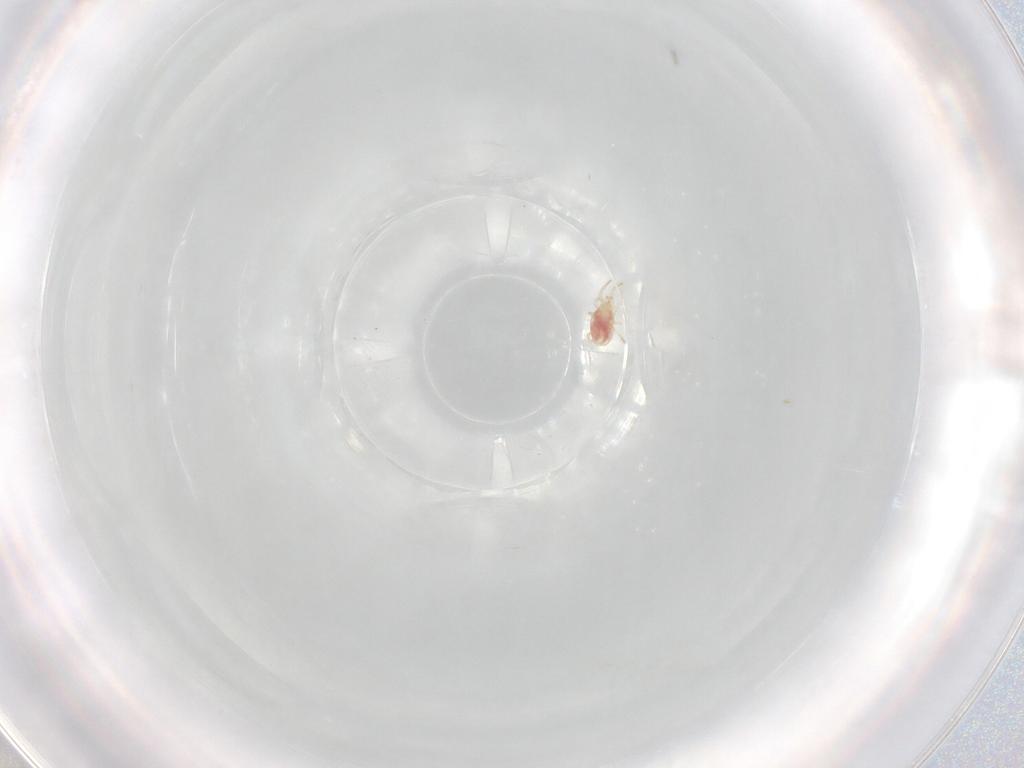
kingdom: Animalia
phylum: Arthropoda
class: Arachnida
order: Mesostigmata
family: Macrochelidae
